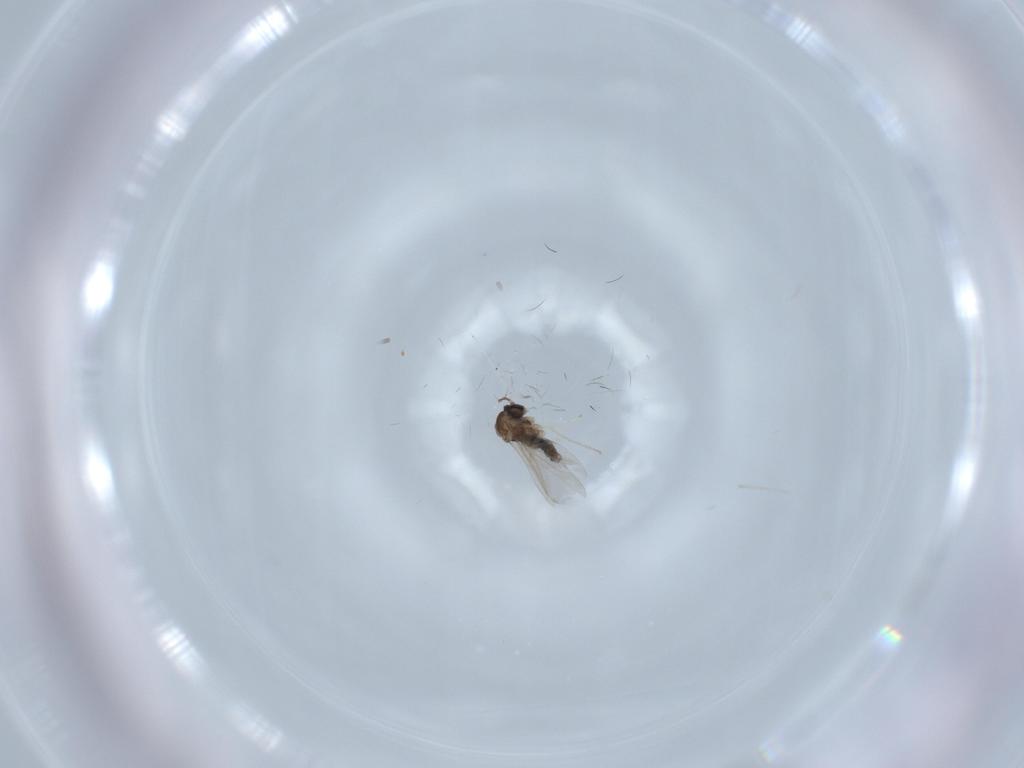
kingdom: Animalia
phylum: Arthropoda
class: Insecta
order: Diptera
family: Cecidomyiidae
